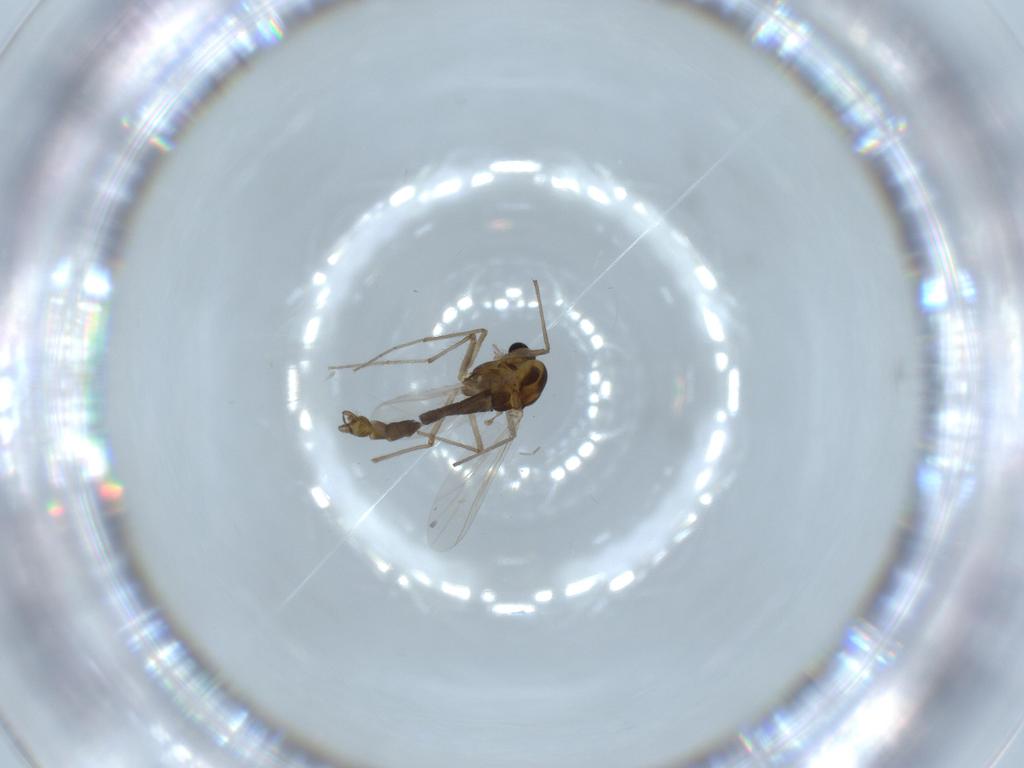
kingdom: Animalia
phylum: Arthropoda
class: Insecta
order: Diptera
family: Chironomidae
